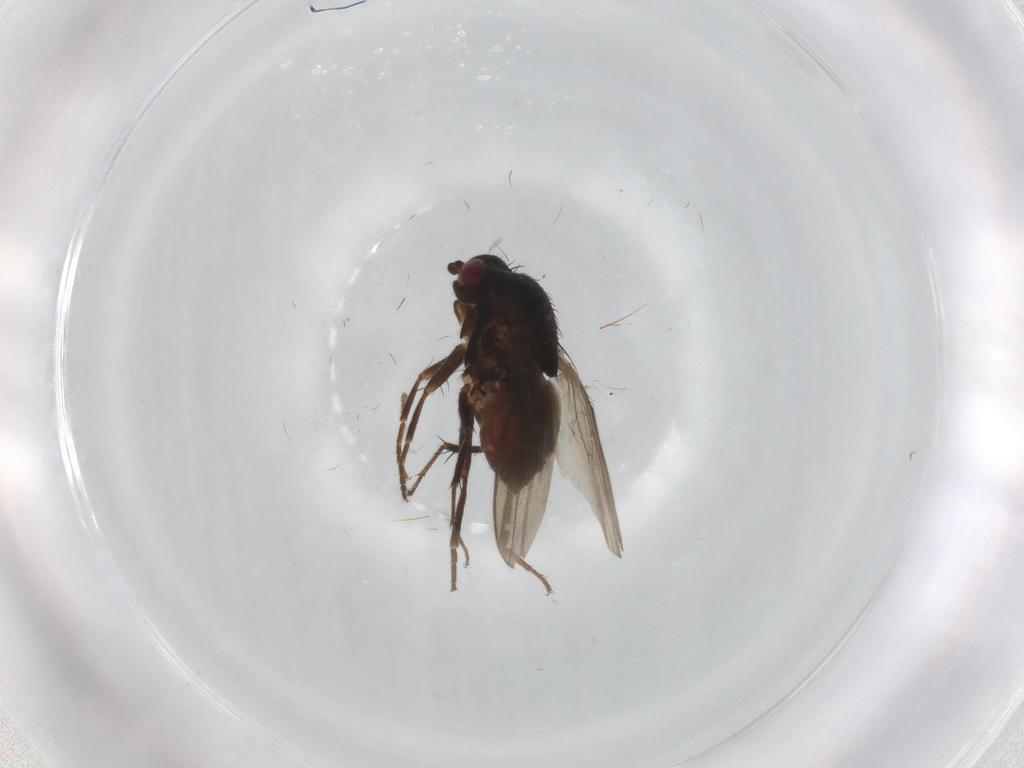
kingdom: Animalia
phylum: Arthropoda
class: Insecta
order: Diptera
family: Sphaeroceridae
